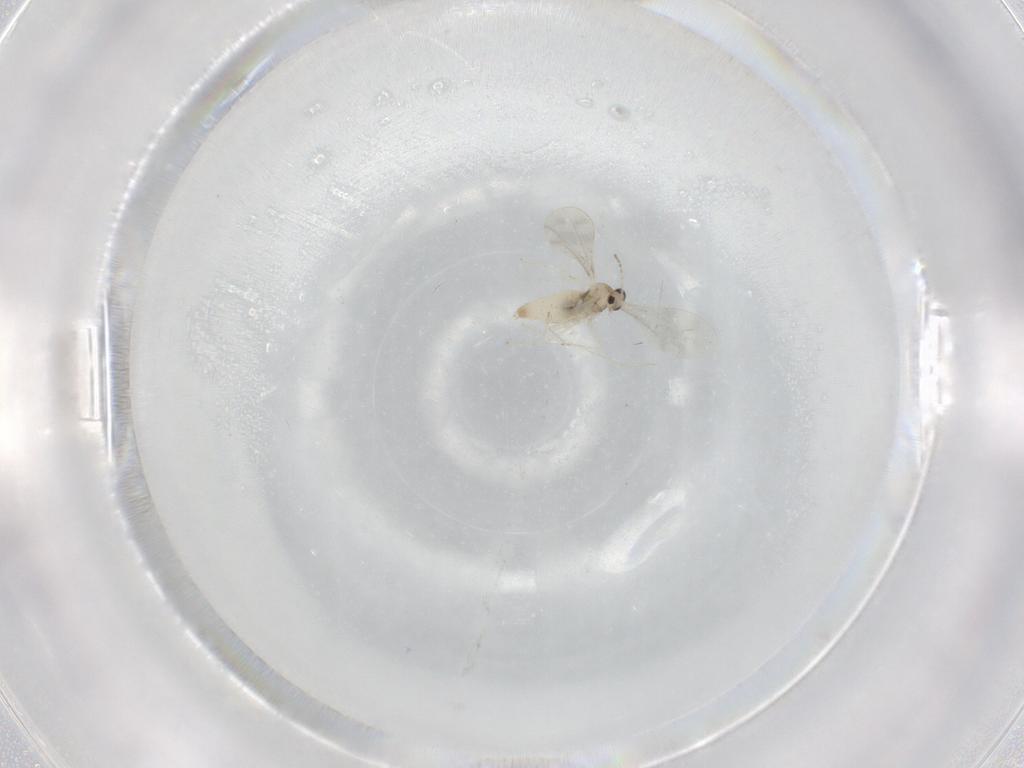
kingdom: Animalia
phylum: Arthropoda
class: Insecta
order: Diptera
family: Cecidomyiidae
